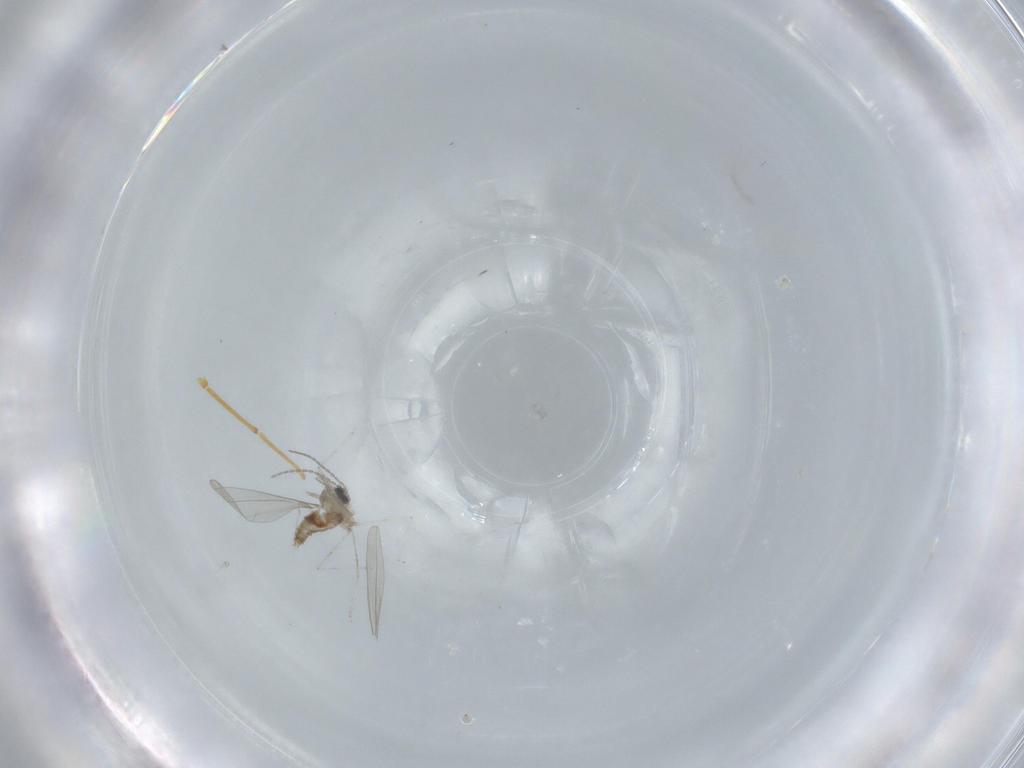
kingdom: Animalia
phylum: Arthropoda
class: Insecta
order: Diptera
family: Cecidomyiidae
